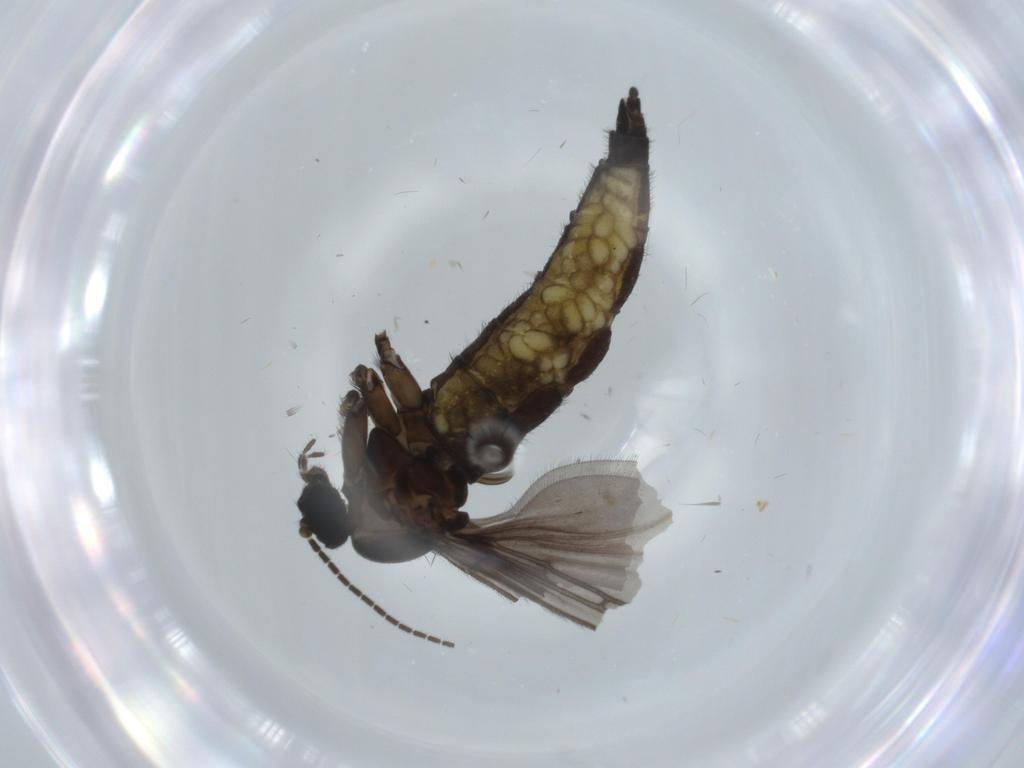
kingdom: Animalia
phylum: Arthropoda
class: Insecta
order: Diptera
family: Sciaridae
